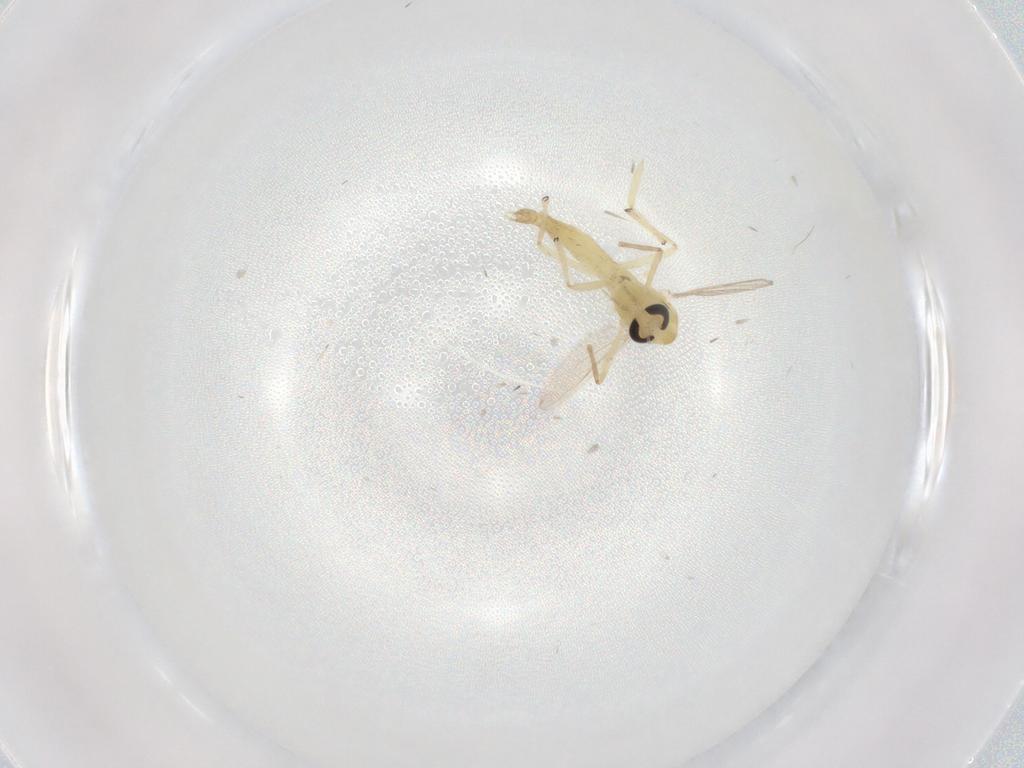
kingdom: Animalia
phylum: Arthropoda
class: Insecta
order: Diptera
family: Chironomidae
